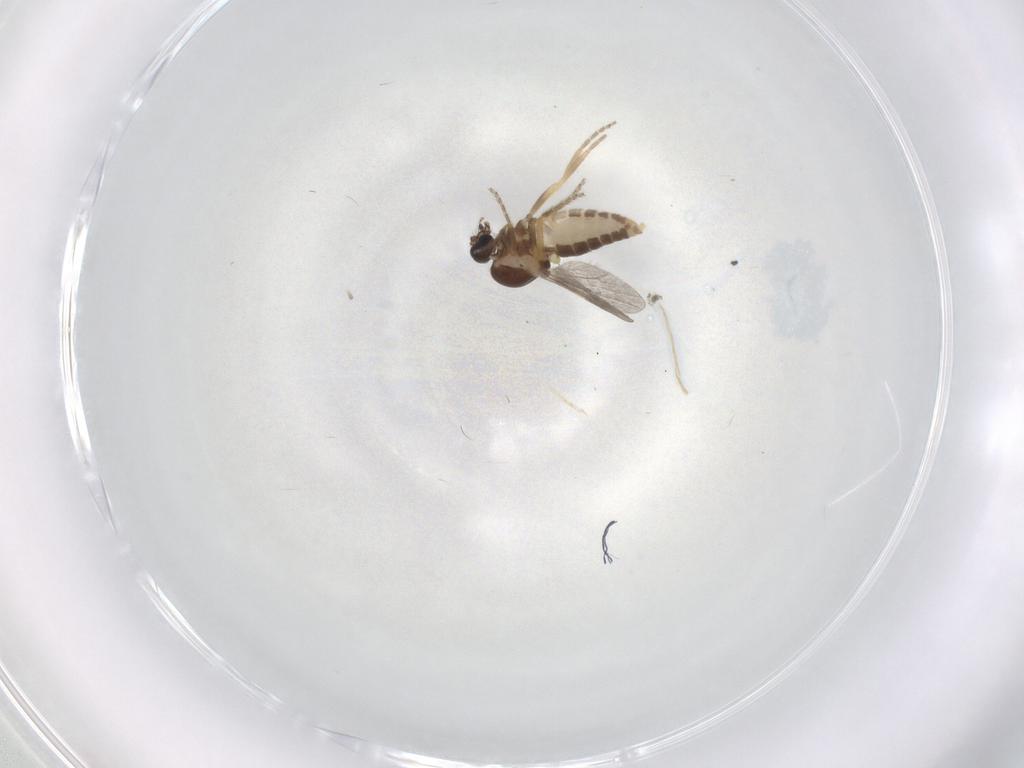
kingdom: Animalia
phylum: Arthropoda
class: Insecta
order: Diptera
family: Ceratopogonidae
